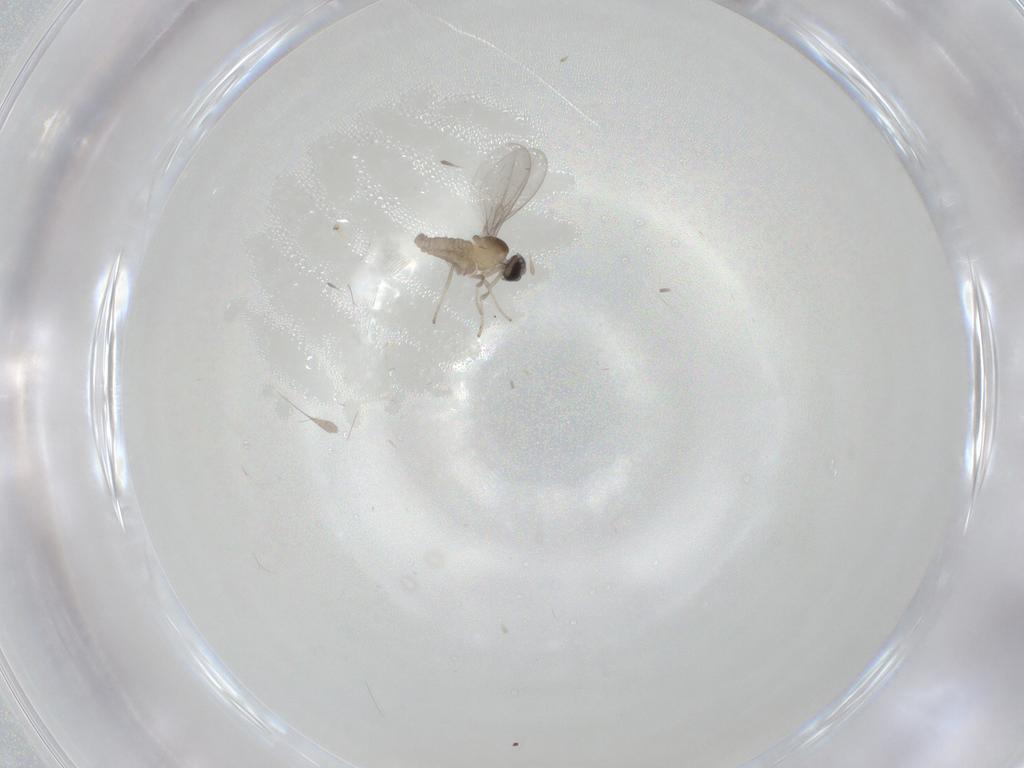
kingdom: Animalia
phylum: Arthropoda
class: Insecta
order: Diptera
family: Cecidomyiidae
